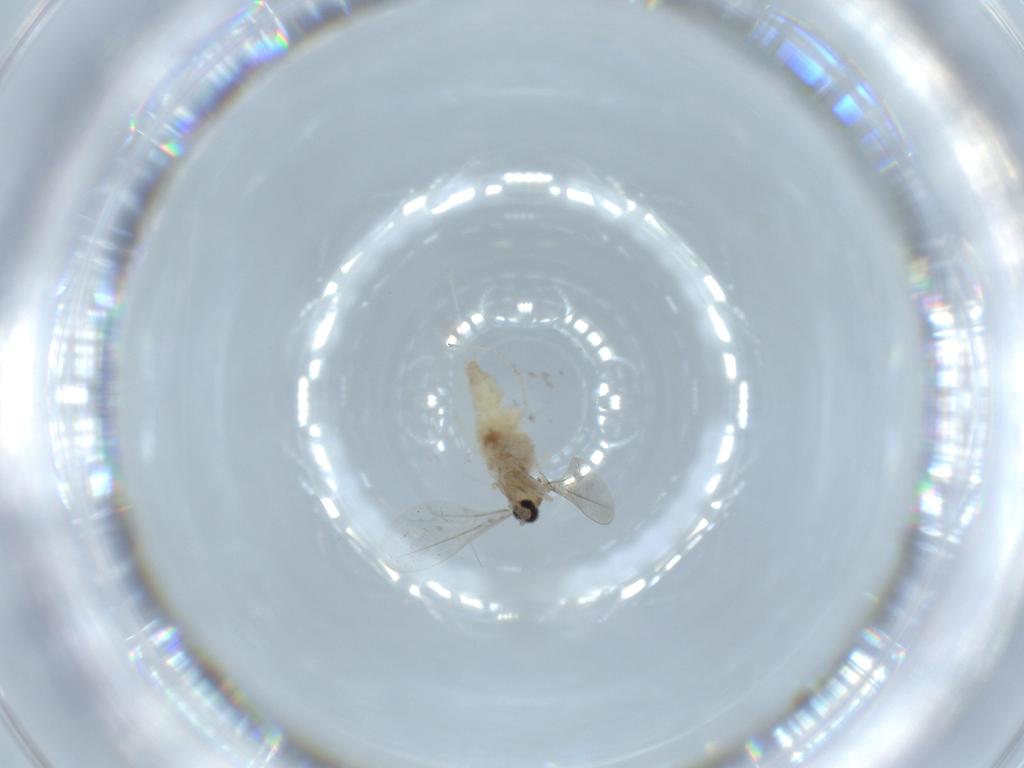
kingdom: Animalia
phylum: Arthropoda
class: Insecta
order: Diptera
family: Cecidomyiidae
